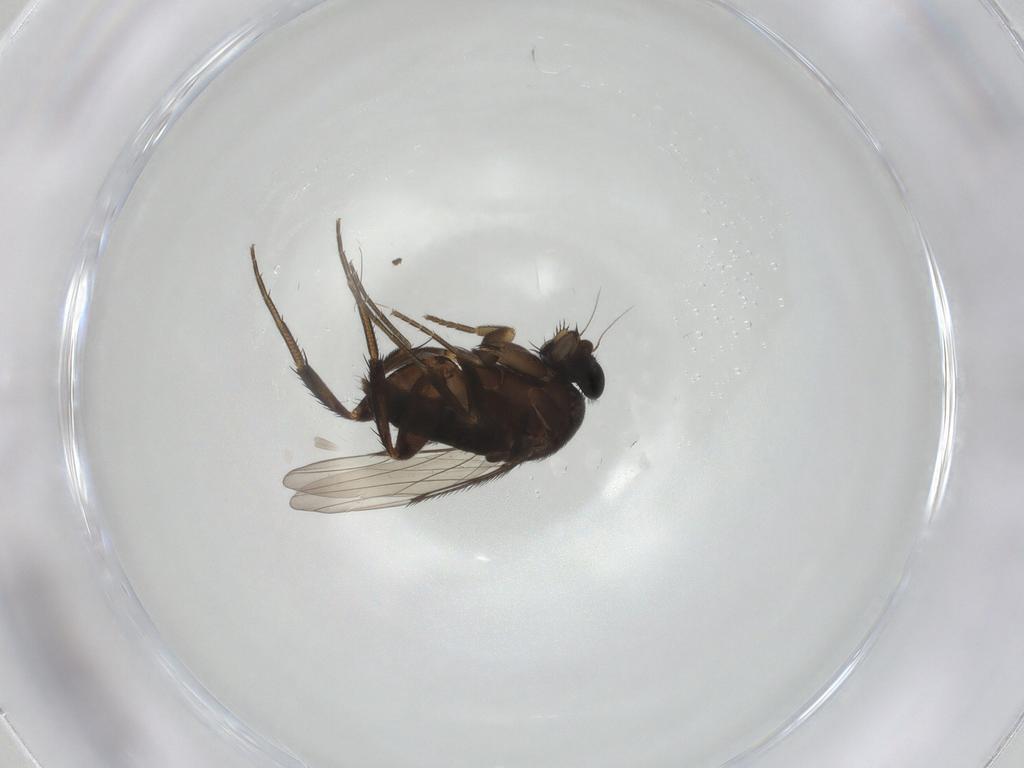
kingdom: Animalia
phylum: Arthropoda
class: Insecta
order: Diptera
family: Phoridae
